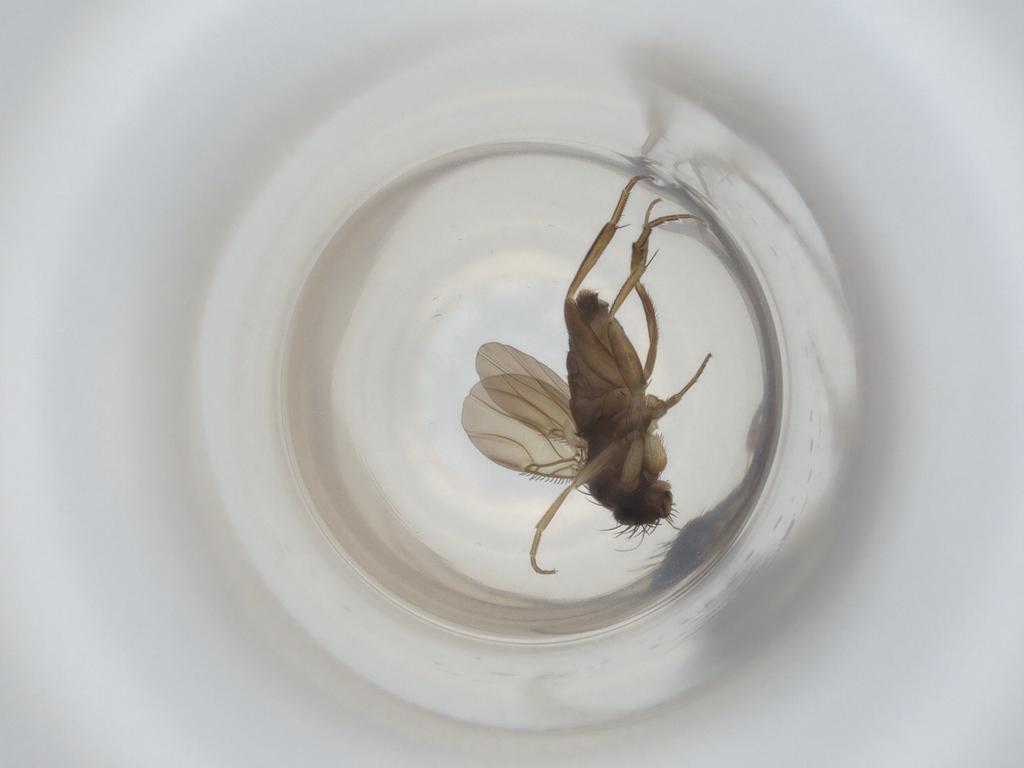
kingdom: Animalia
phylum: Arthropoda
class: Insecta
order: Diptera
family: Phoridae
